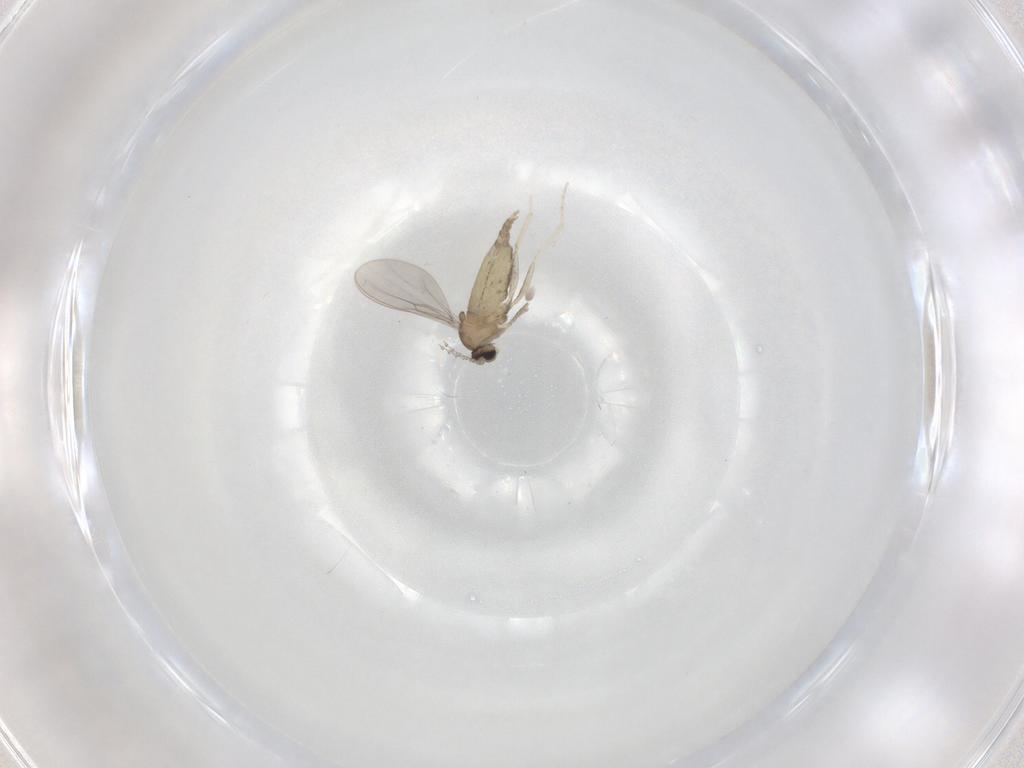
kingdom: Animalia
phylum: Arthropoda
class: Insecta
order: Diptera
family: Cecidomyiidae
